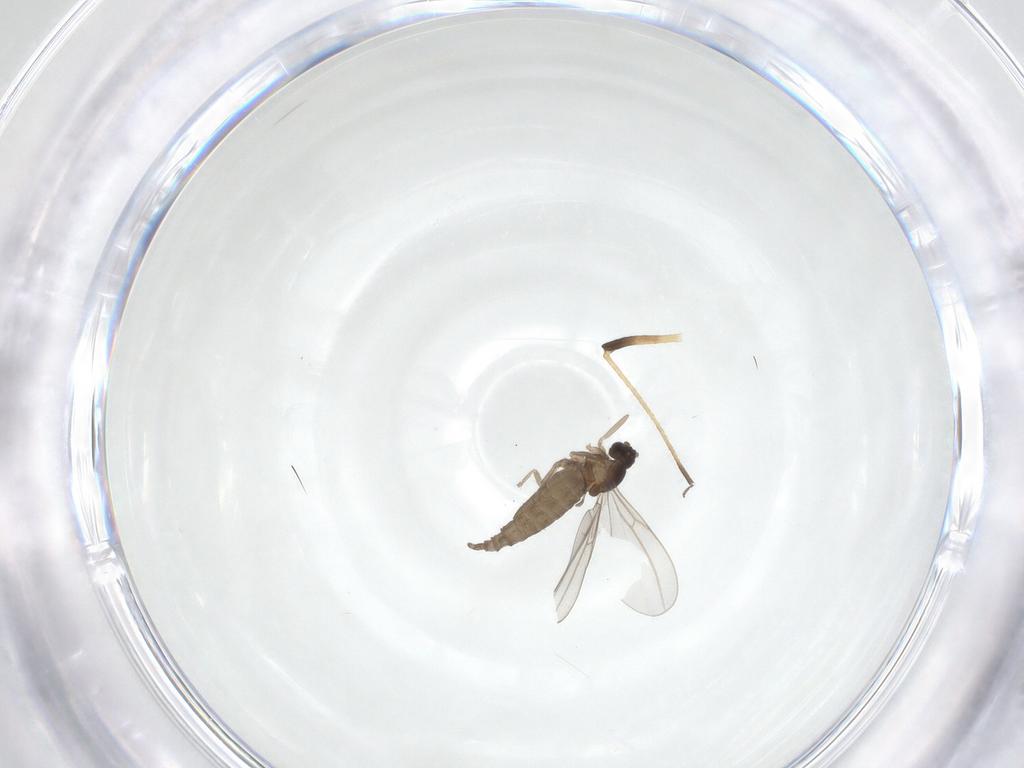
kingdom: Animalia
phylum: Arthropoda
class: Insecta
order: Diptera
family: Cecidomyiidae
